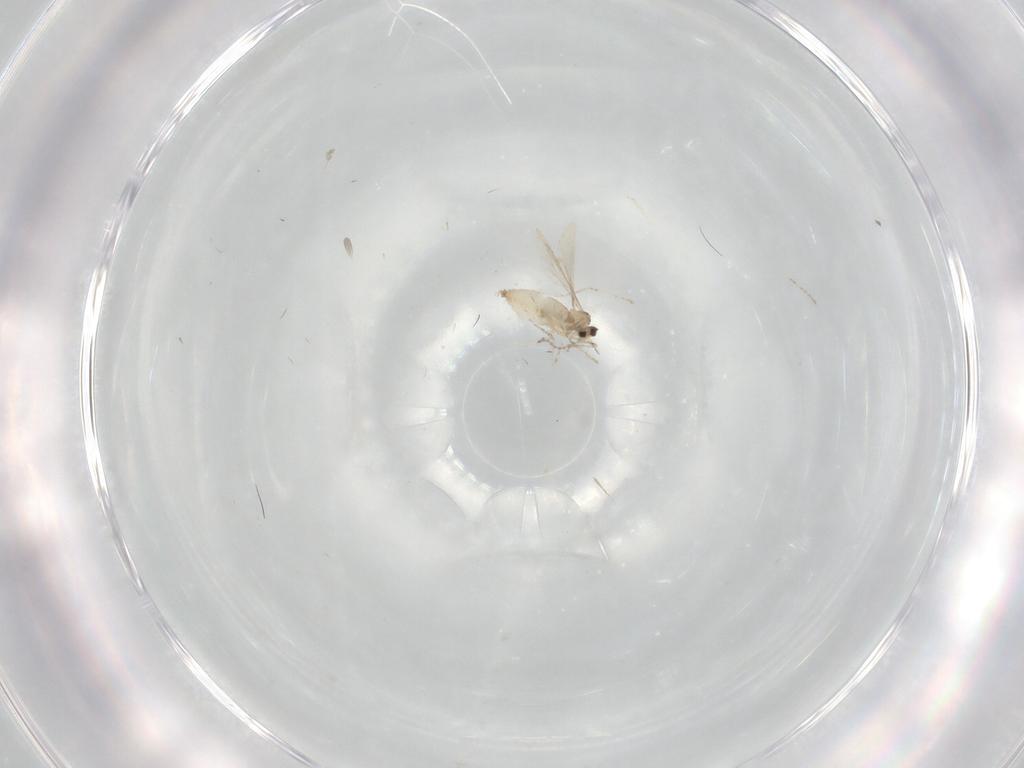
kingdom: Animalia
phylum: Arthropoda
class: Insecta
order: Diptera
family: Cecidomyiidae
